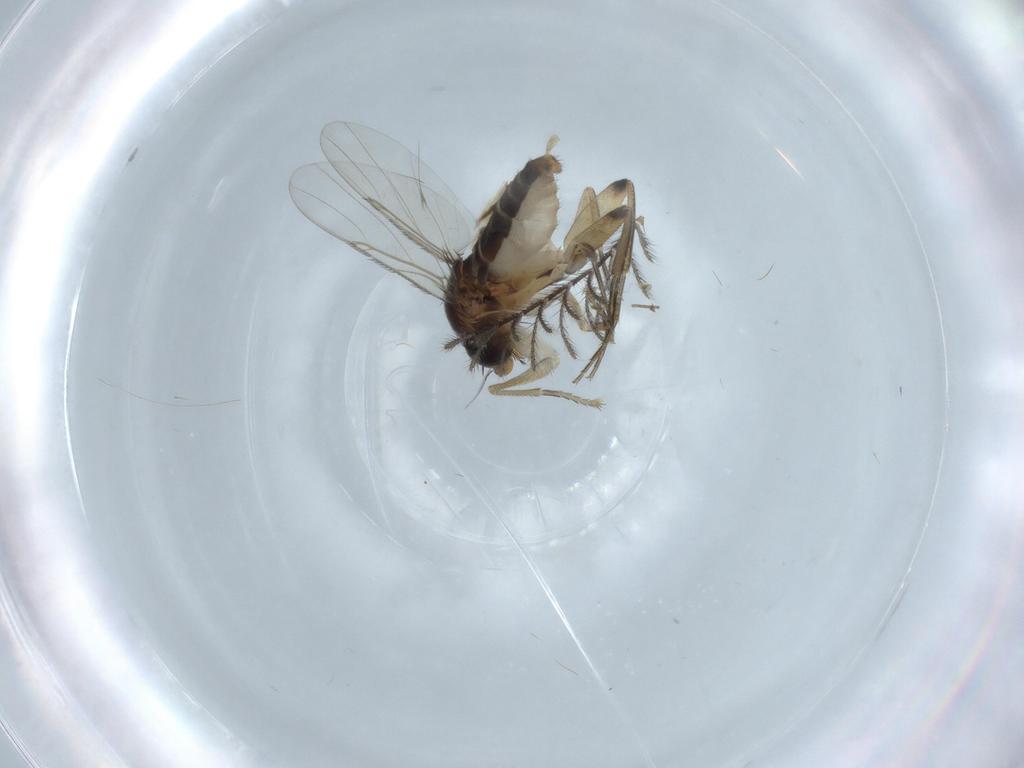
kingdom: Animalia
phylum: Arthropoda
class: Insecta
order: Diptera
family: Phoridae
